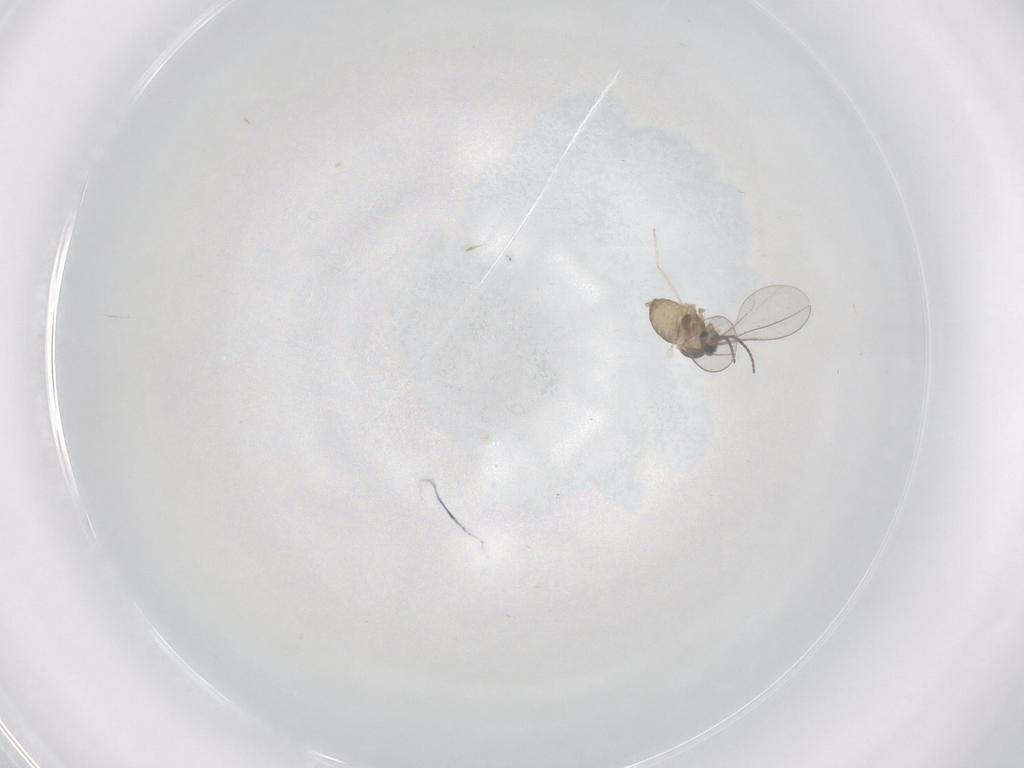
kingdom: Animalia
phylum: Arthropoda
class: Insecta
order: Diptera
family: Cecidomyiidae
